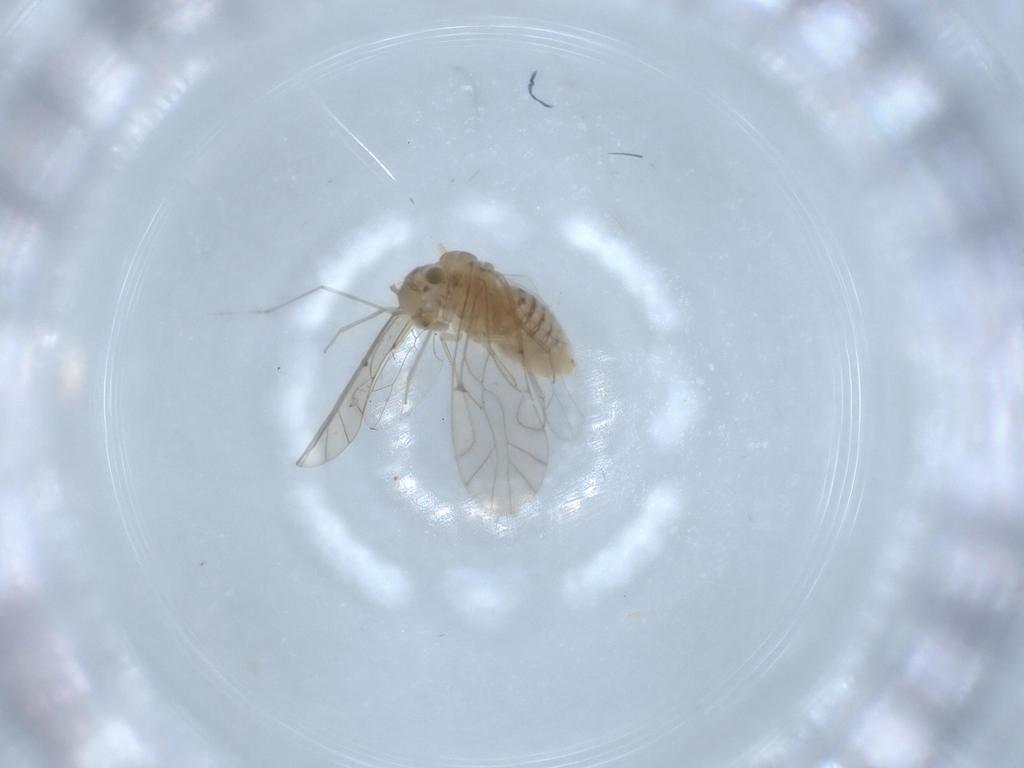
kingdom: Animalia
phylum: Arthropoda
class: Insecta
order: Psocodea
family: Lachesillidae
